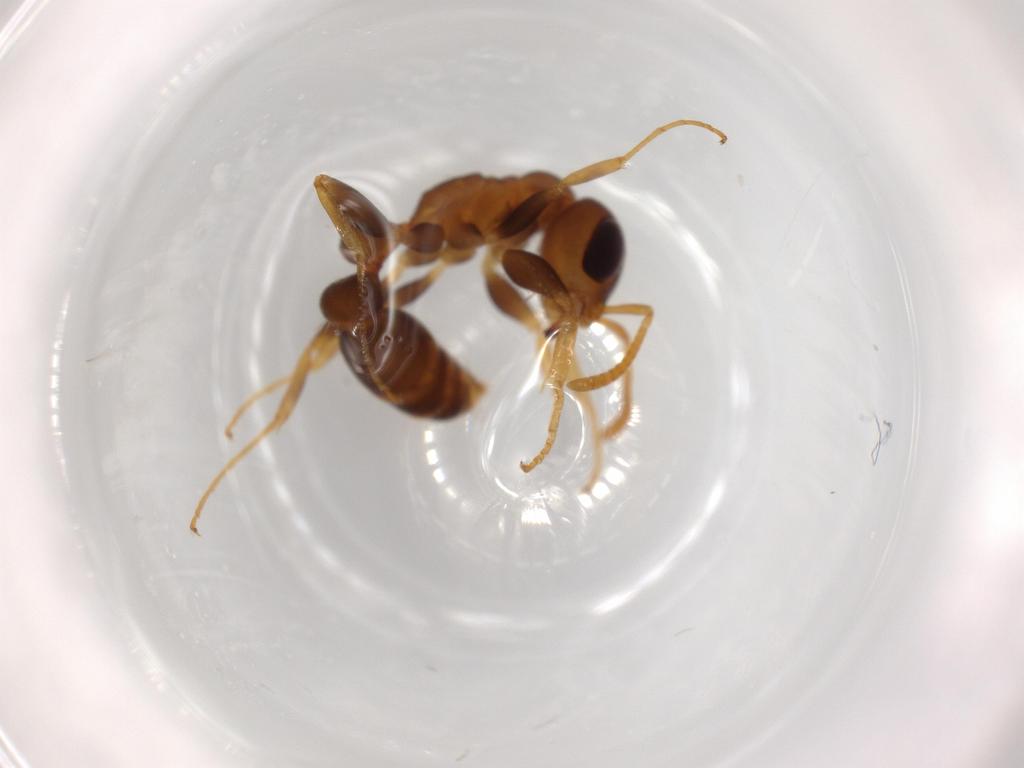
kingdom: Animalia
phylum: Arthropoda
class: Insecta
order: Hymenoptera
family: Formicidae
